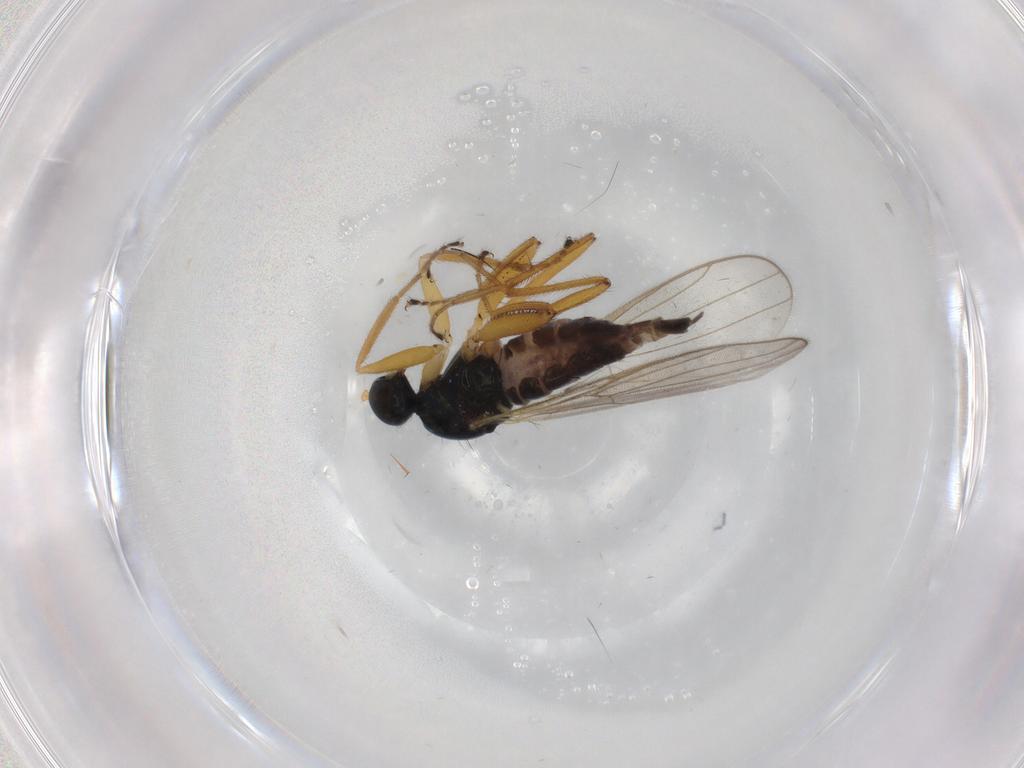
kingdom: Animalia
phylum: Arthropoda
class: Insecta
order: Diptera
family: Hybotidae
